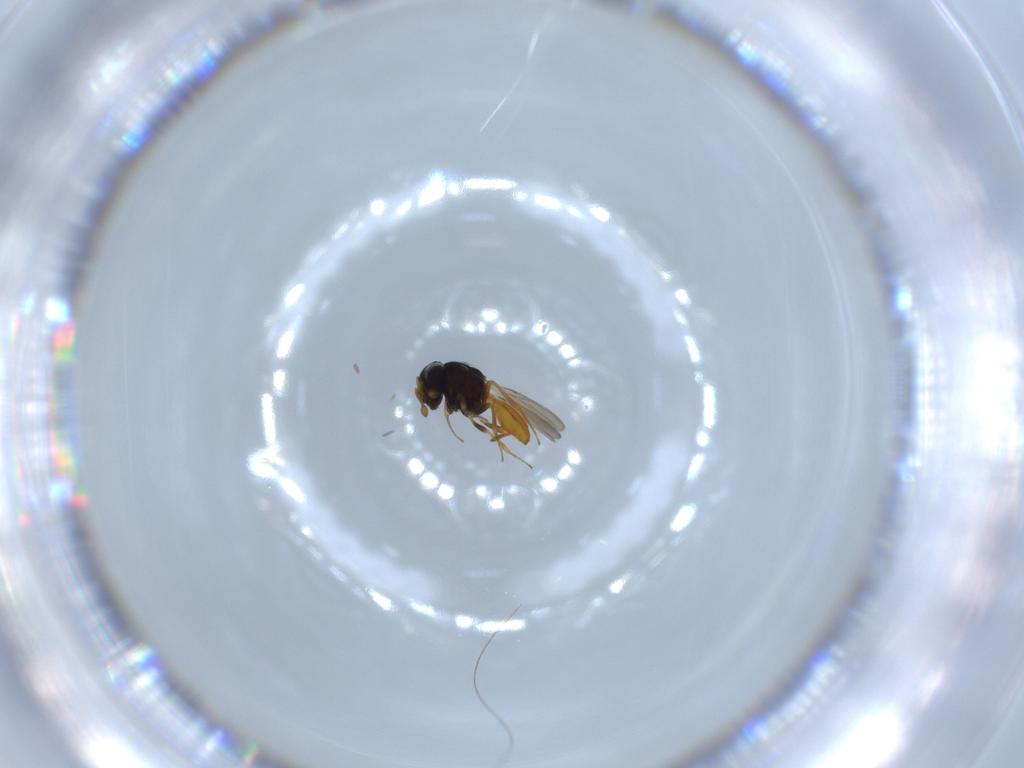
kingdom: Animalia
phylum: Arthropoda
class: Insecta
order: Hymenoptera
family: Scelionidae
